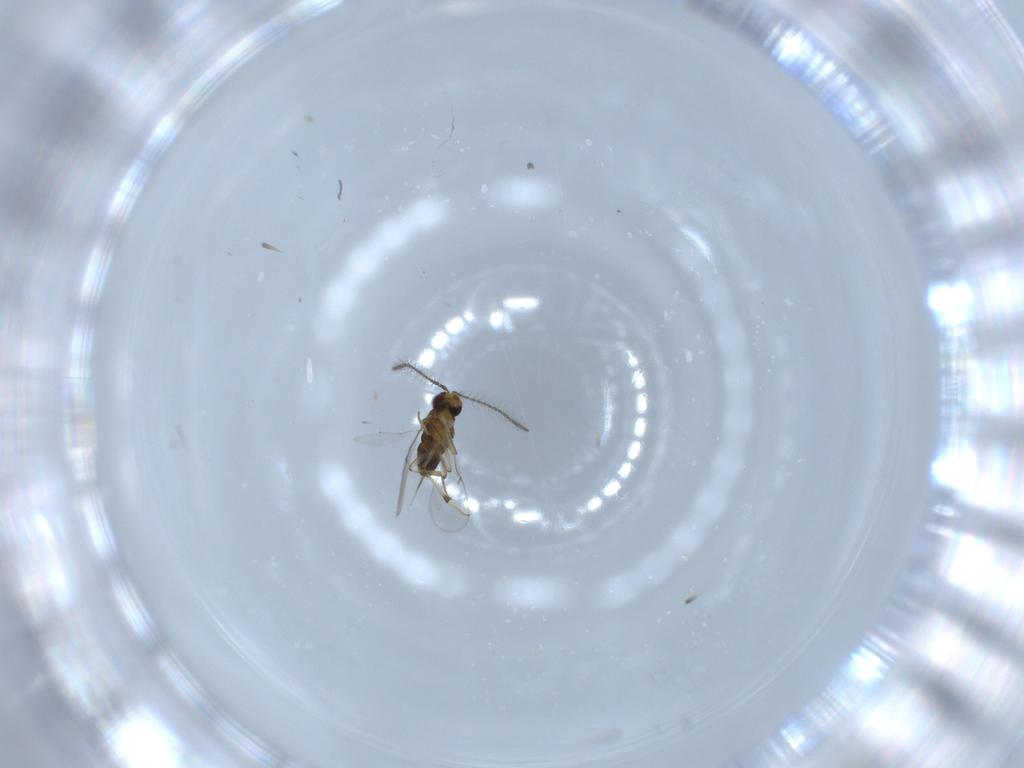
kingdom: Animalia
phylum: Arthropoda
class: Insecta
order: Hymenoptera
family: Pteromalidae
